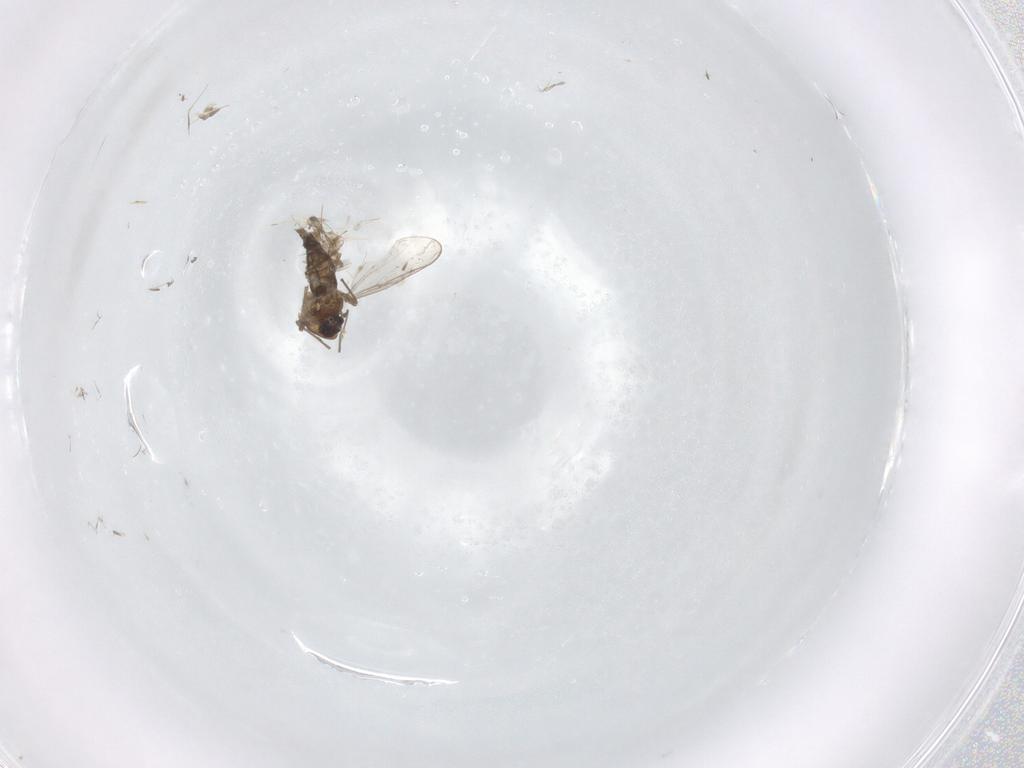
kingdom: Animalia
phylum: Arthropoda
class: Insecta
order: Diptera
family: Chironomidae
